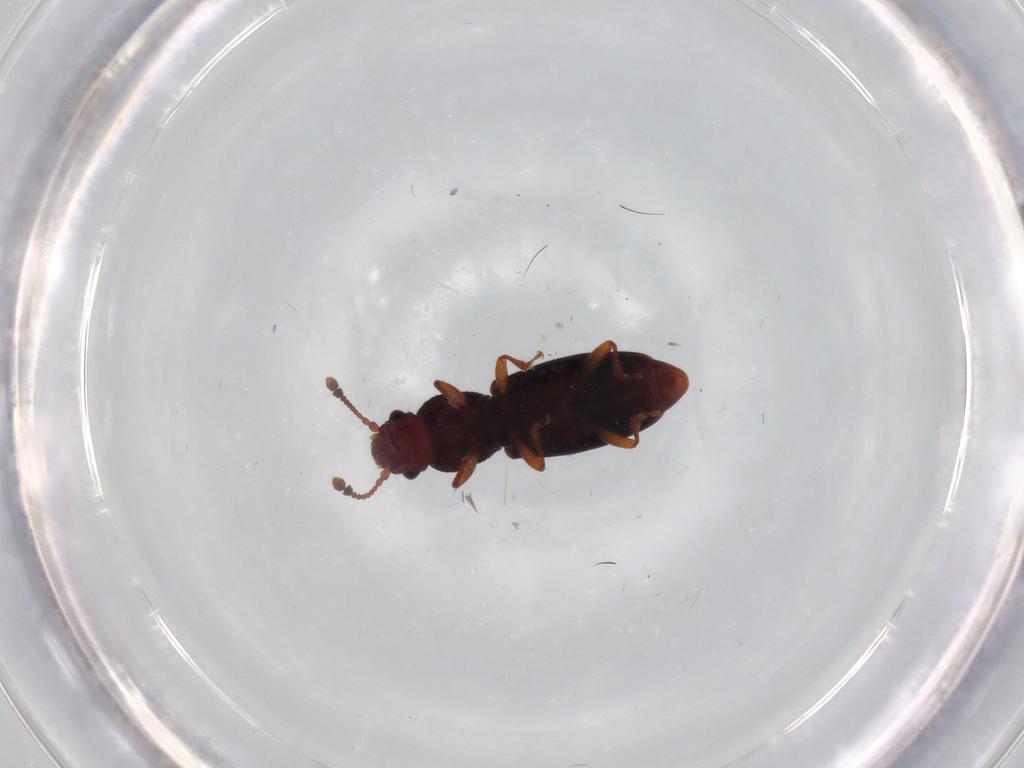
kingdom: Animalia
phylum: Arthropoda
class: Insecta
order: Coleoptera
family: Monotomidae
